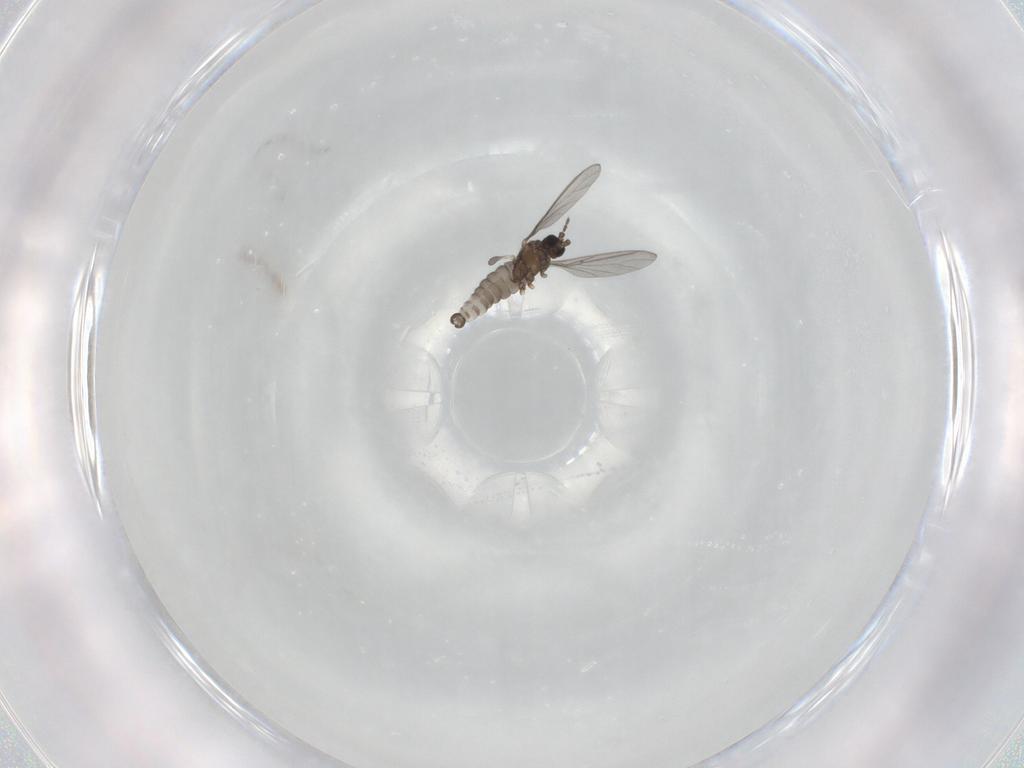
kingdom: Animalia
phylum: Arthropoda
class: Insecta
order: Diptera
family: Sciaridae
